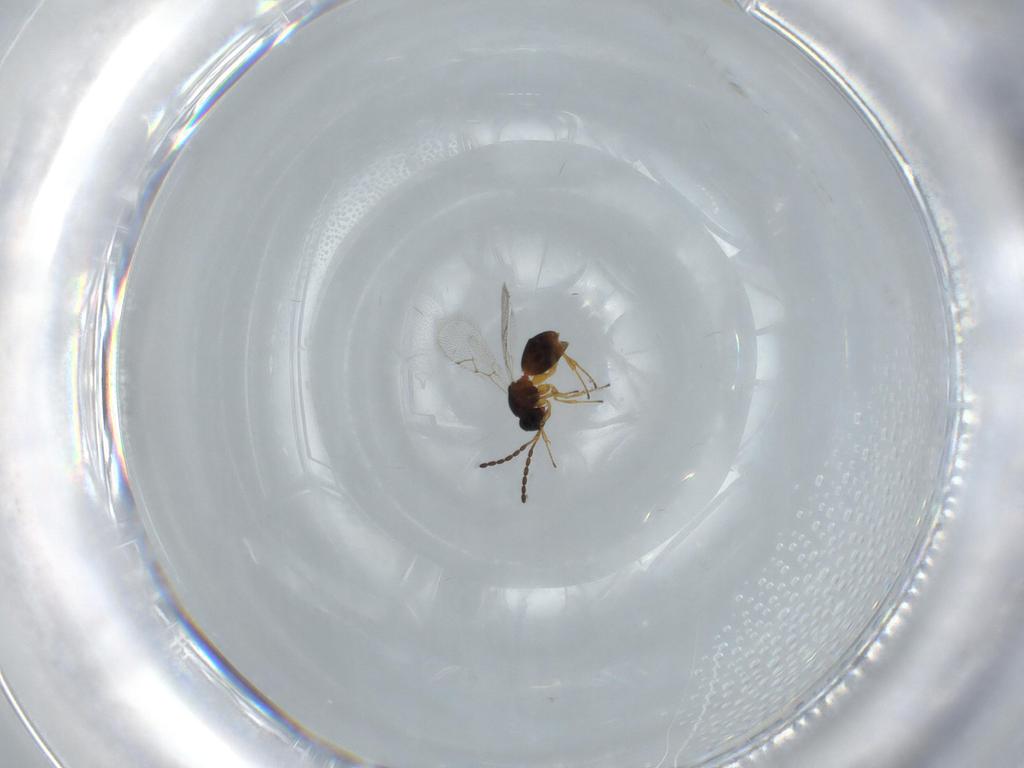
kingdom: Animalia
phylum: Arthropoda
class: Insecta
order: Hymenoptera
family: Figitidae
